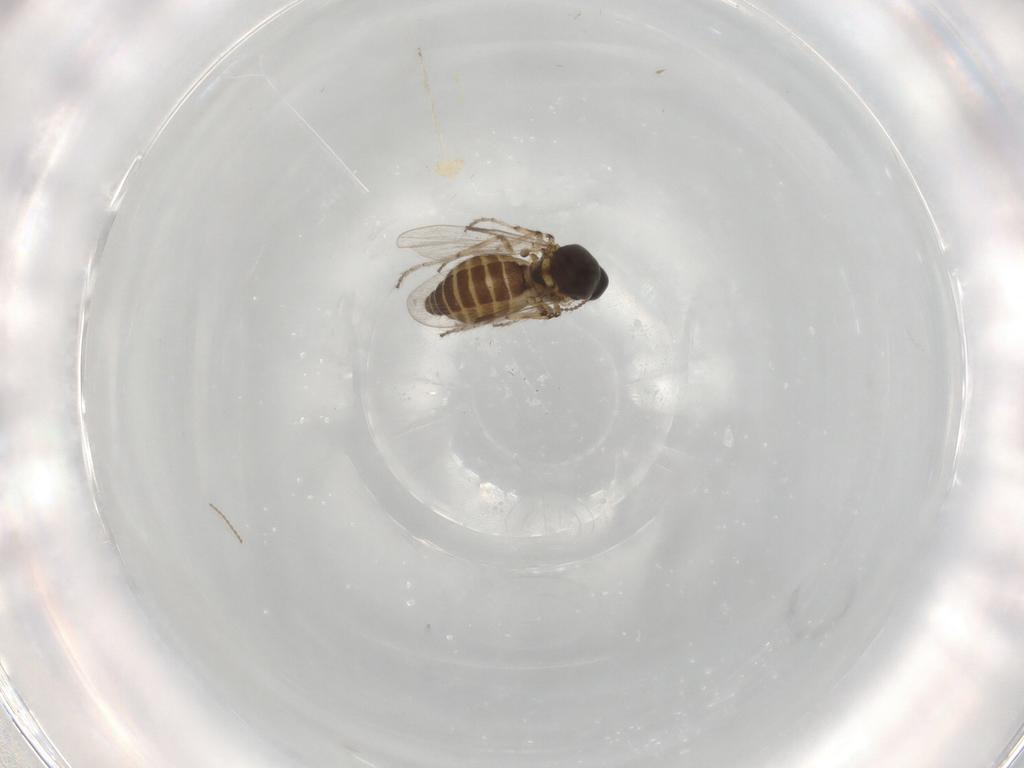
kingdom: Animalia
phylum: Arthropoda
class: Insecta
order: Diptera
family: Ceratopogonidae
